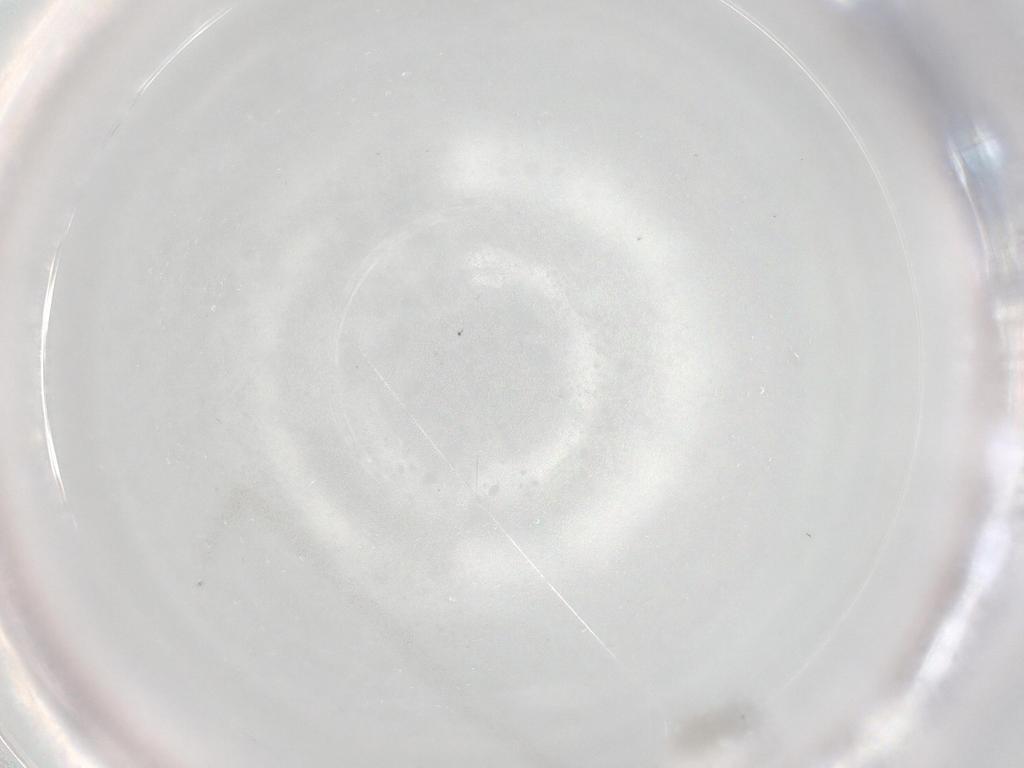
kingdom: Animalia
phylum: Arthropoda
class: Insecta
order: Diptera
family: Cecidomyiidae
